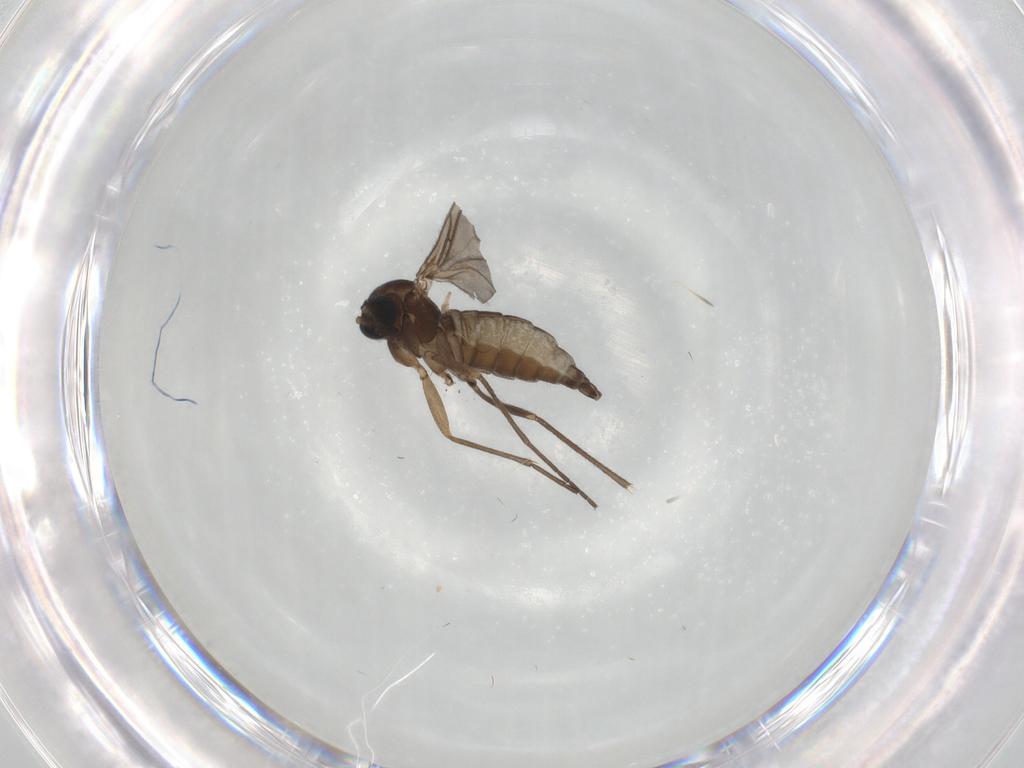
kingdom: Animalia
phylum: Arthropoda
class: Insecta
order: Diptera
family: Sciaridae
